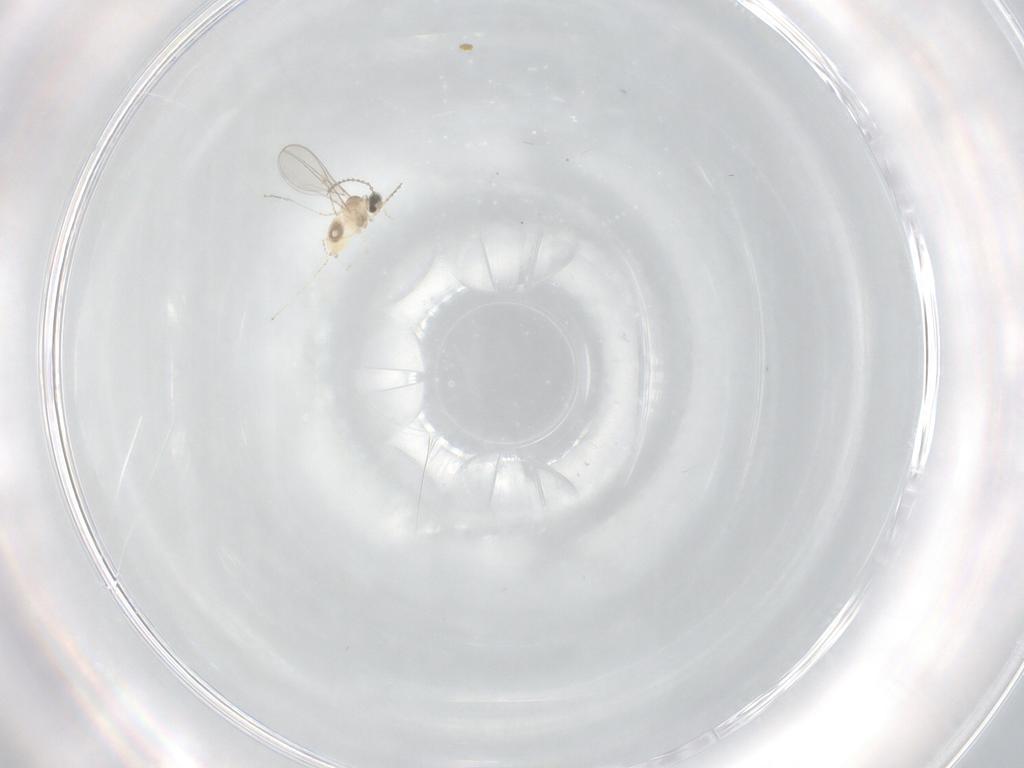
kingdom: Animalia
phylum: Arthropoda
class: Insecta
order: Diptera
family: Cecidomyiidae
